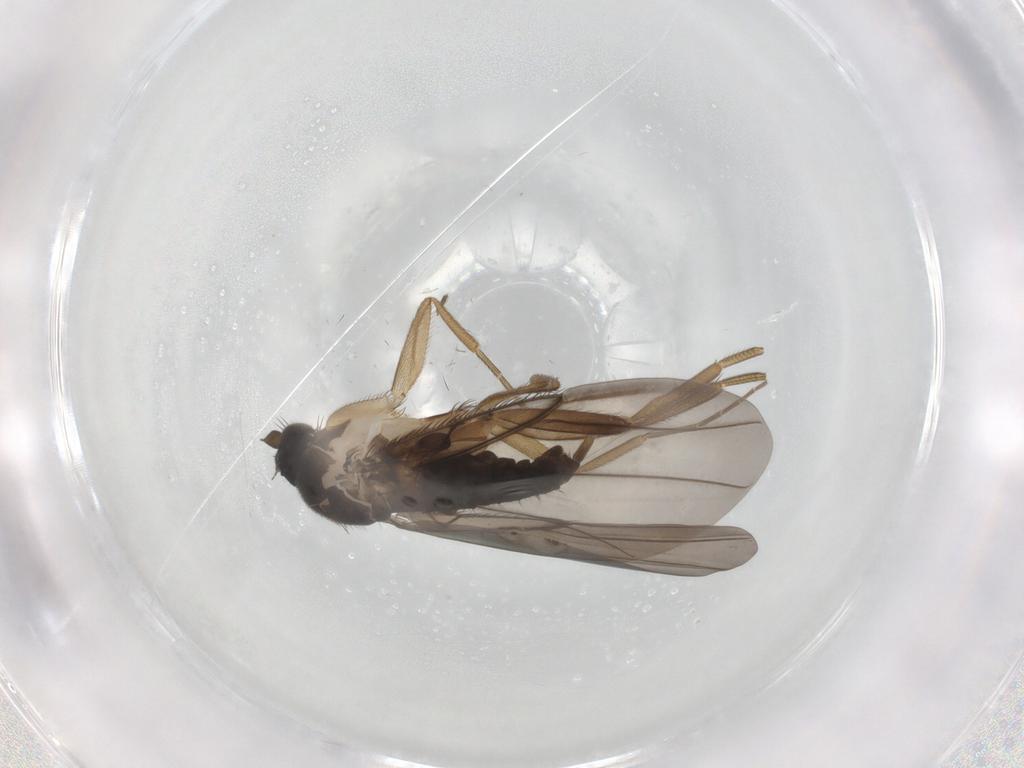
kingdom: Animalia
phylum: Arthropoda
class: Insecta
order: Diptera
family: Phoridae
